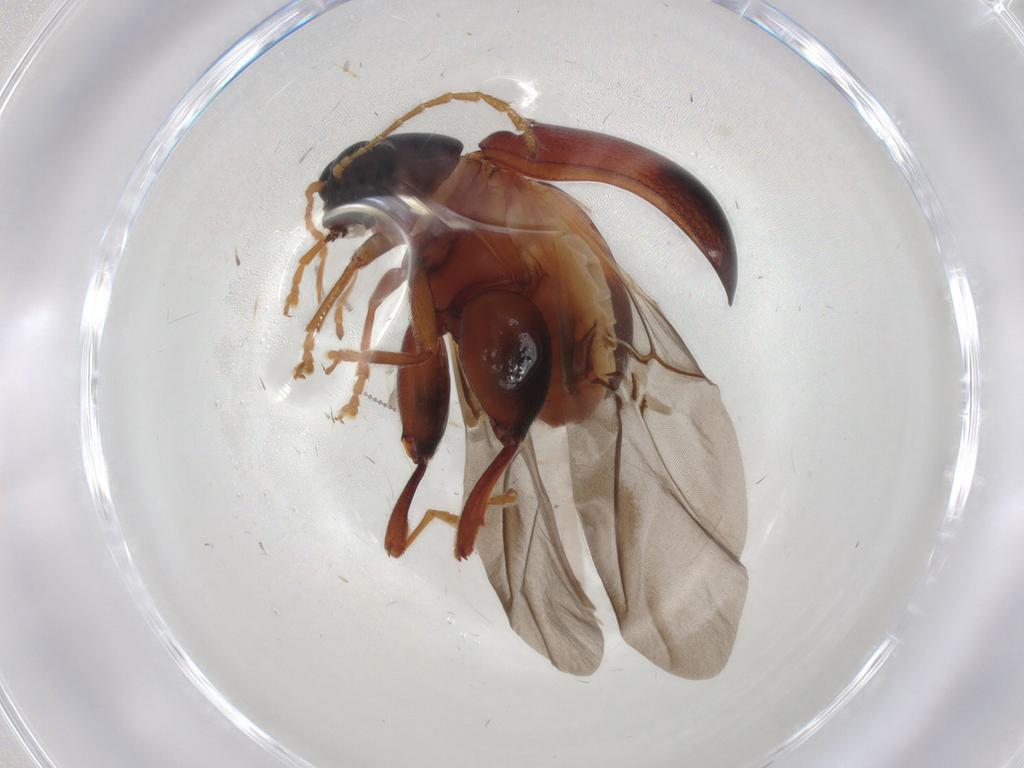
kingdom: Animalia
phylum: Arthropoda
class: Insecta
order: Coleoptera
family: Chrysomelidae
